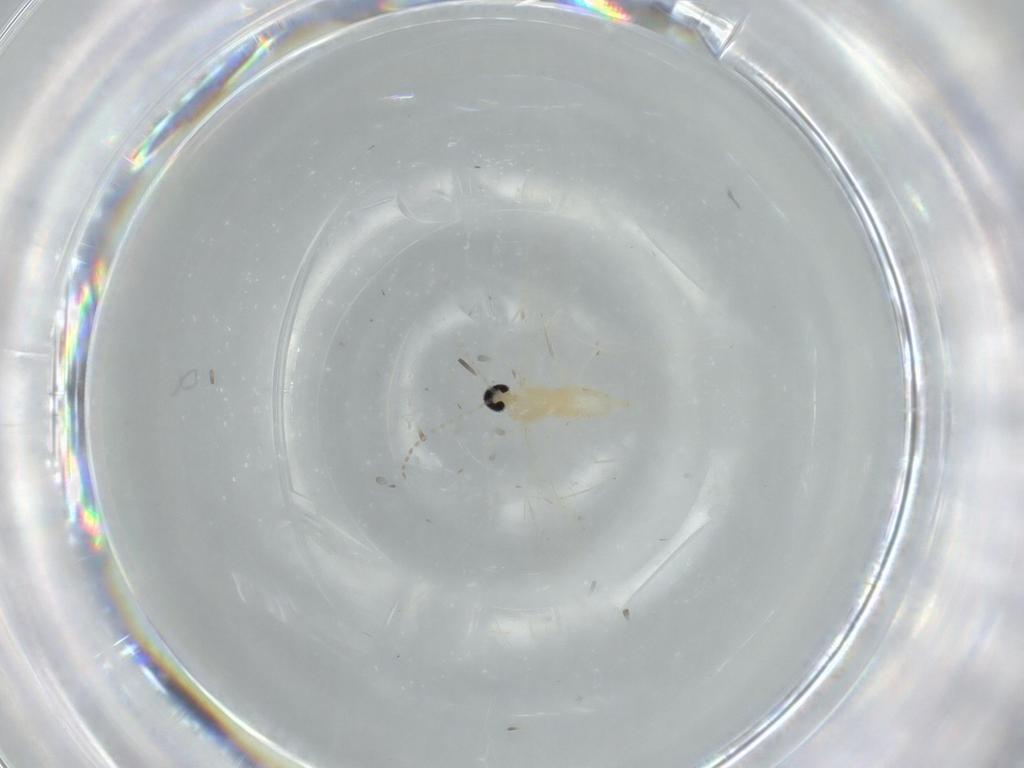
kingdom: Animalia
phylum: Arthropoda
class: Insecta
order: Diptera
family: Cecidomyiidae
